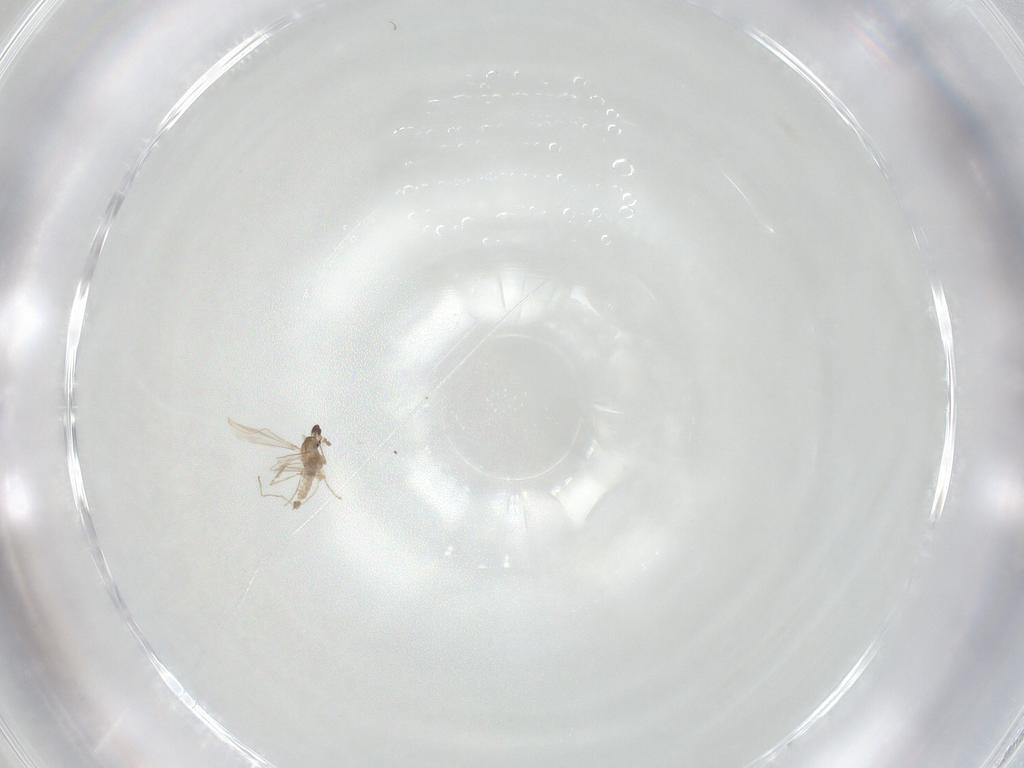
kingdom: Animalia
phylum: Arthropoda
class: Insecta
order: Diptera
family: Cecidomyiidae
